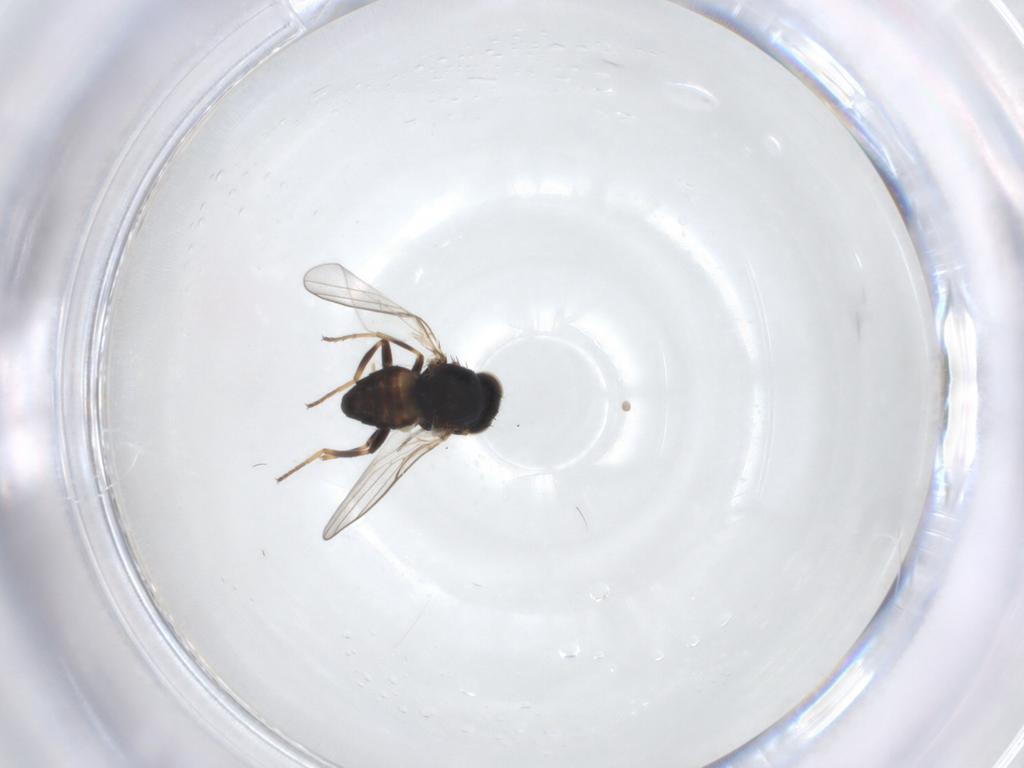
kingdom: Animalia
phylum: Arthropoda
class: Insecta
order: Diptera
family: Chloropidae
